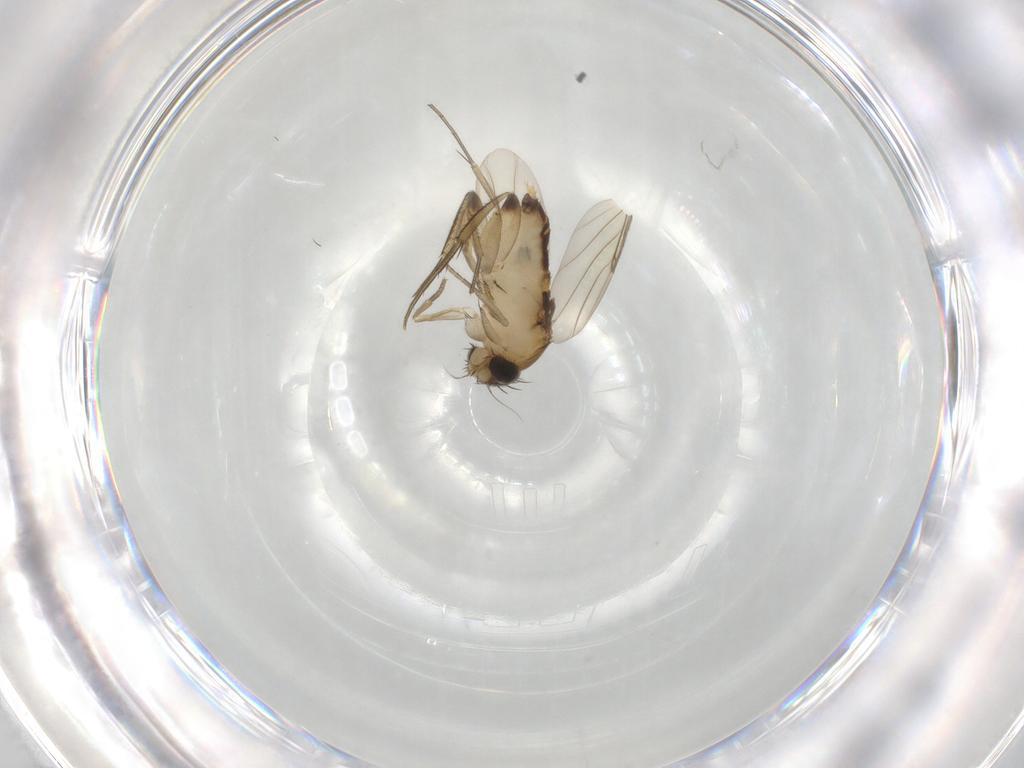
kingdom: Animalia
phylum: Arthropoda
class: Insecta
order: Diptera
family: Phoridae
